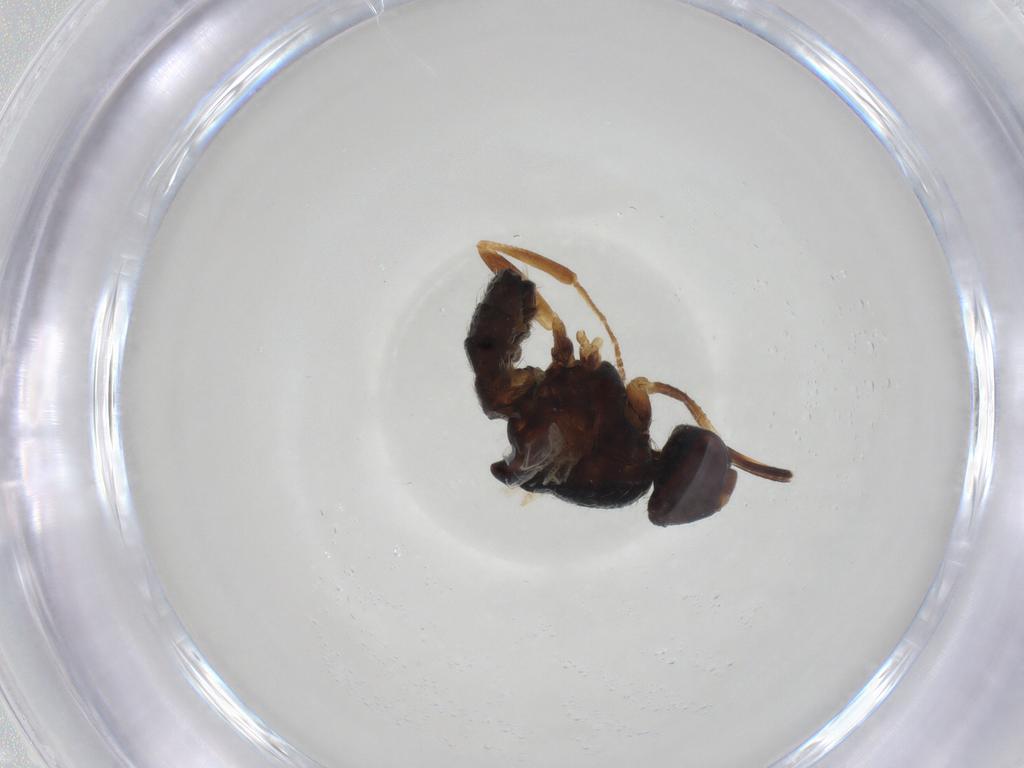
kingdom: Animalia
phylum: Arthropoda
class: Insecta
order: Diptera
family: Muscidae
